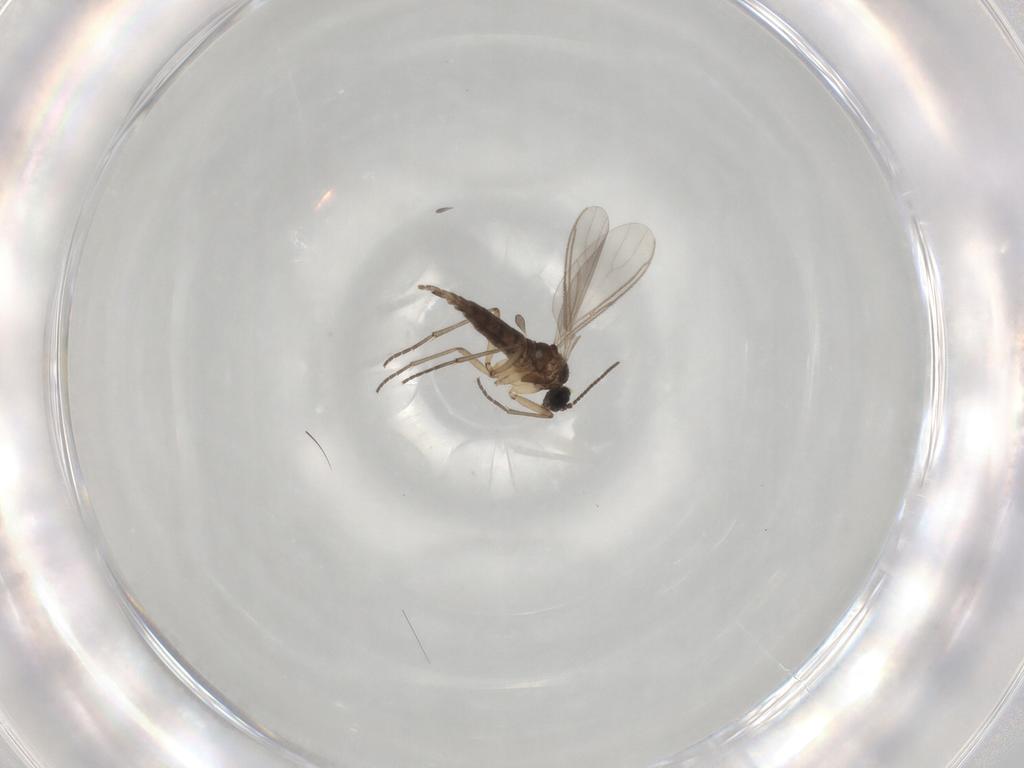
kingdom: Animalia
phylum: Arthropoda
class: Insecta
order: Diptera
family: Sciaridae
